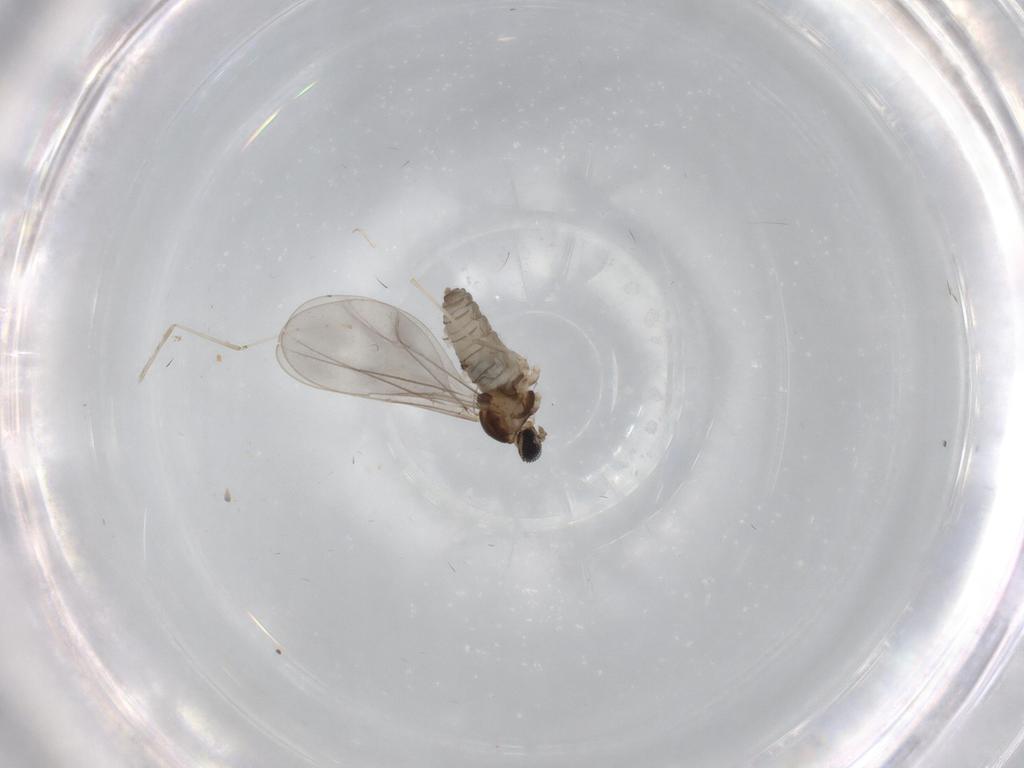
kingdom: Animalia
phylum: Arthropoda
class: Insecta
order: Diptera
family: Cecidomyiidae
